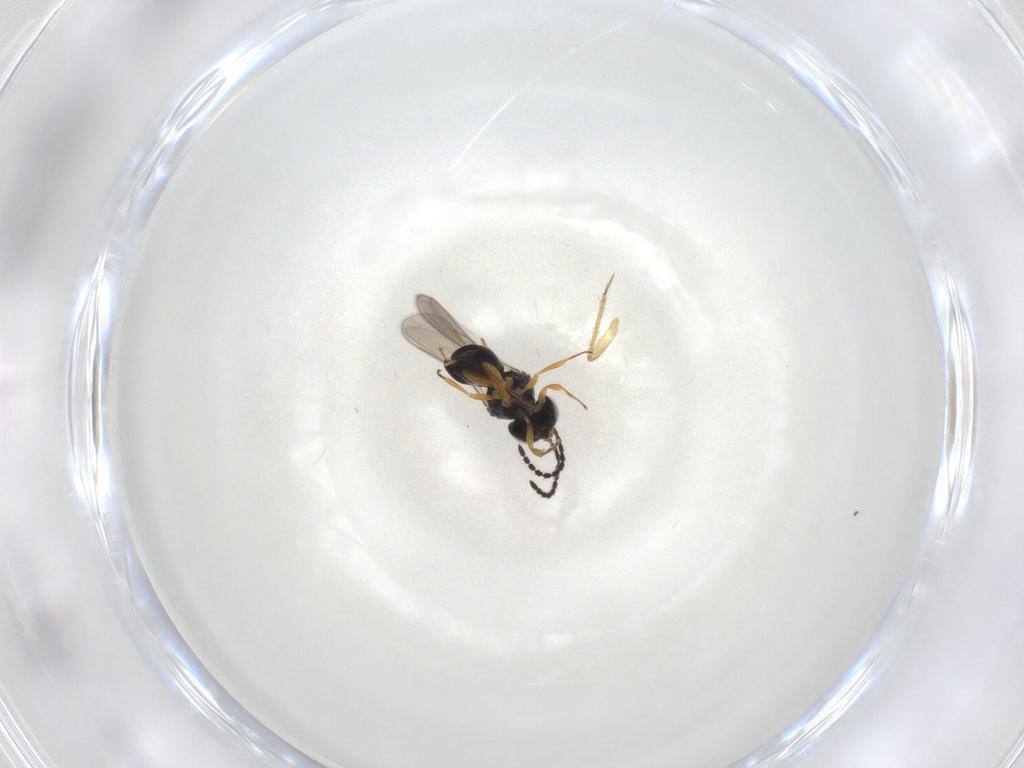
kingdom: Animalia
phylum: Arthropoda
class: Insecta
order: Hymenoptera
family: Scelionidae
